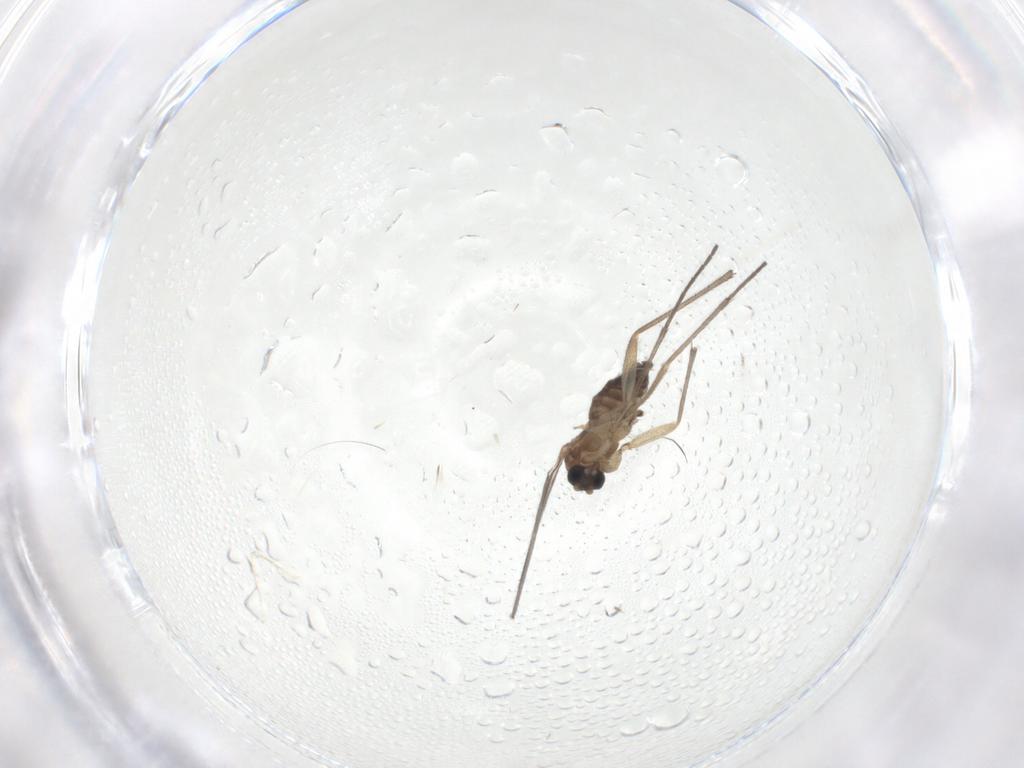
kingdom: Animalia
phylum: Arthropoda
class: Insecta
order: Diptera
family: Sciaridae
